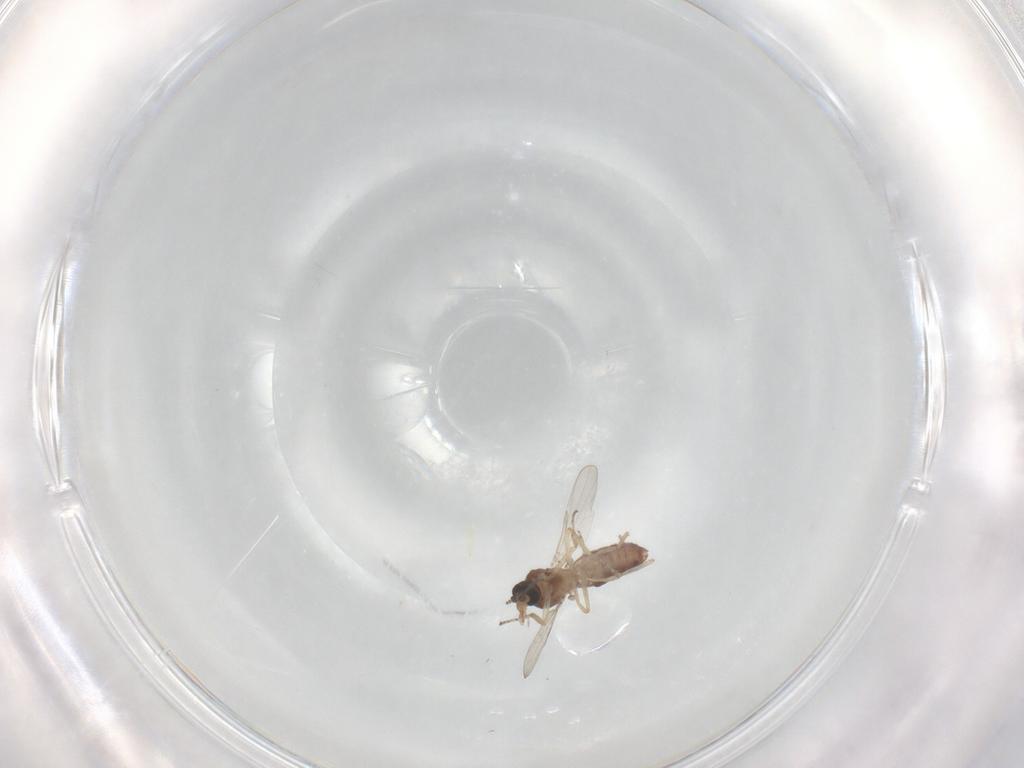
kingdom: Animalia
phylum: Arthropoda
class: Insecta
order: Diptera
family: Ceratopogonidae
